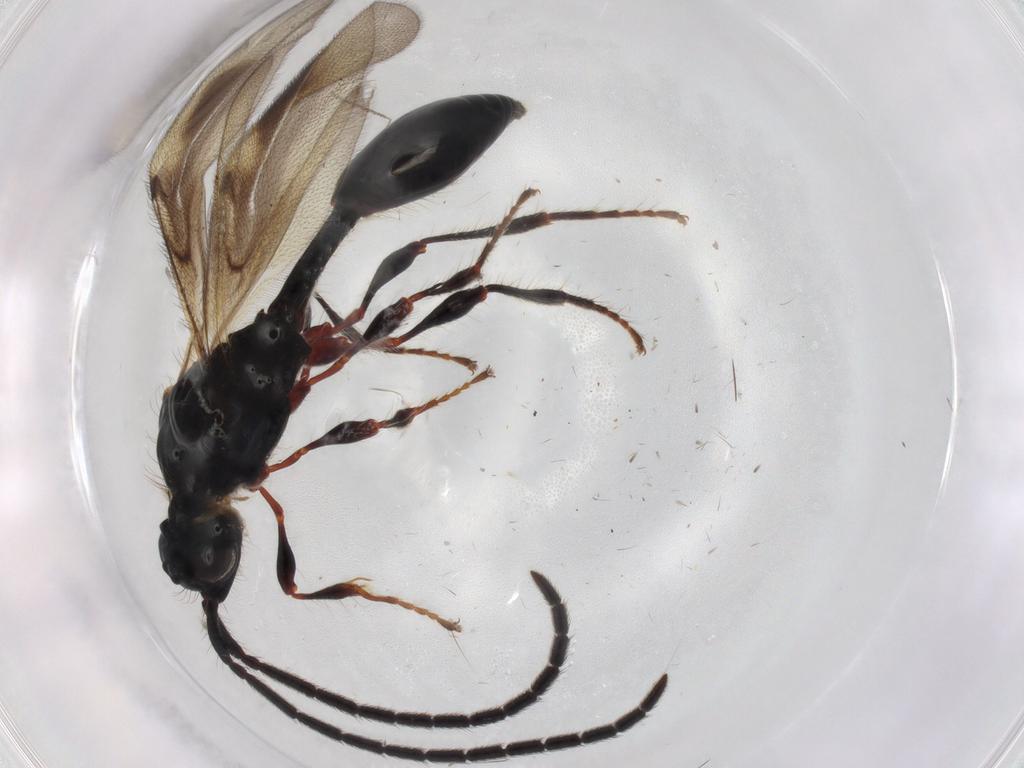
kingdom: Animalia
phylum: Arthropoda
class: Insecta
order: Hymenoptera
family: Diapriidae
